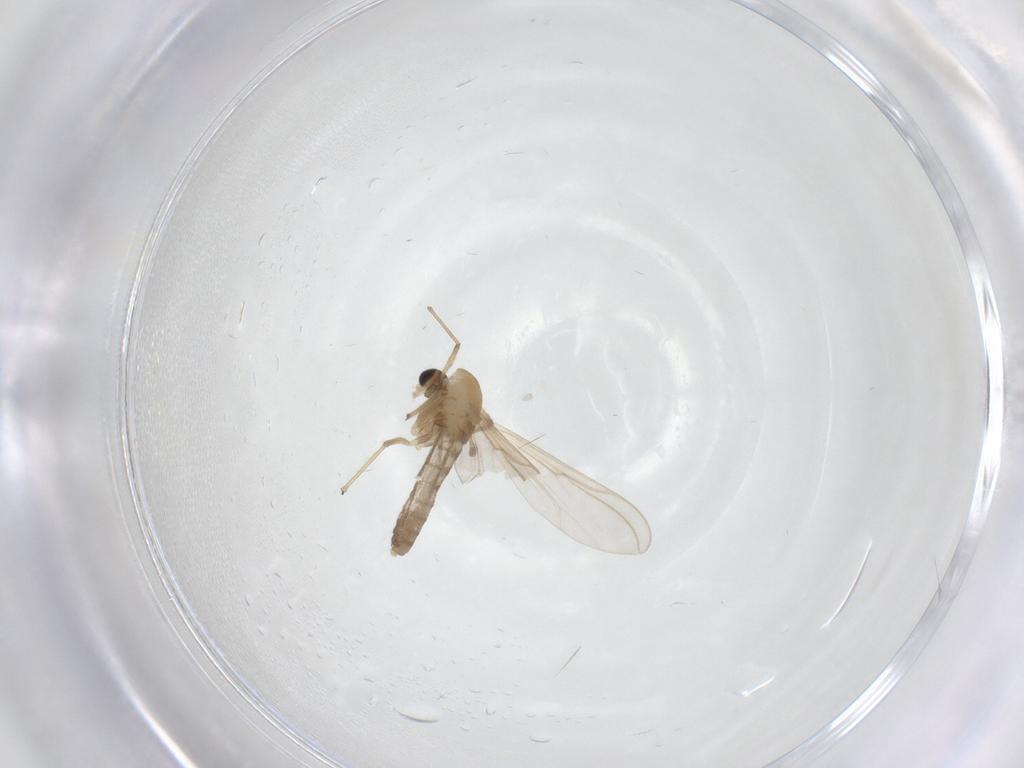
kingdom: Animalia
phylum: Arthropoda
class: Insecta
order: Diptera
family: Chironomidae
